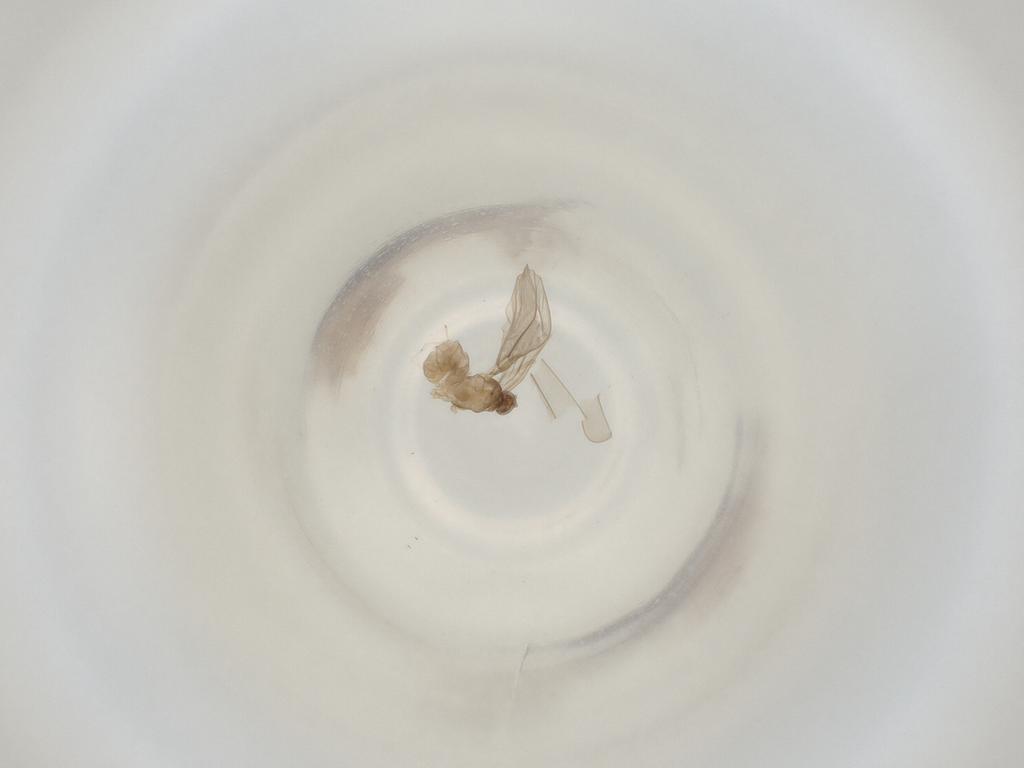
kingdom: Animalia
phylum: Arthropoda
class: Insecta
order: Diptera
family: Cecidomyiidae
